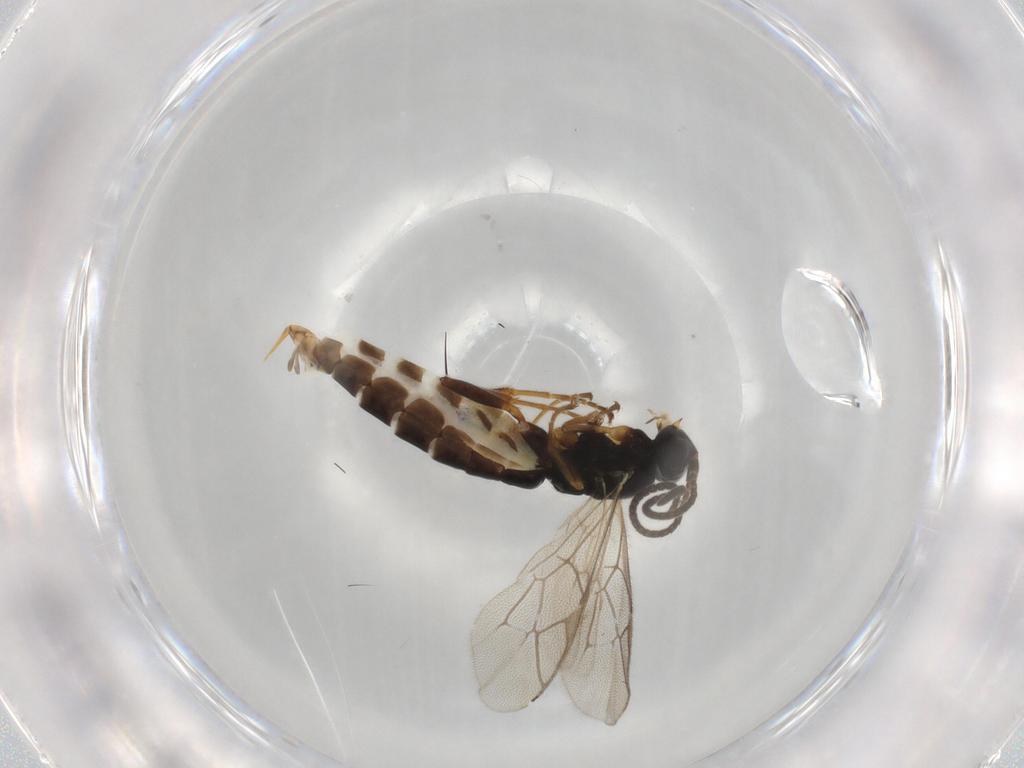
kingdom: Animalia
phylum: Arthropoda
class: Insecta
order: Hymenoptera
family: Ichneumonidae
